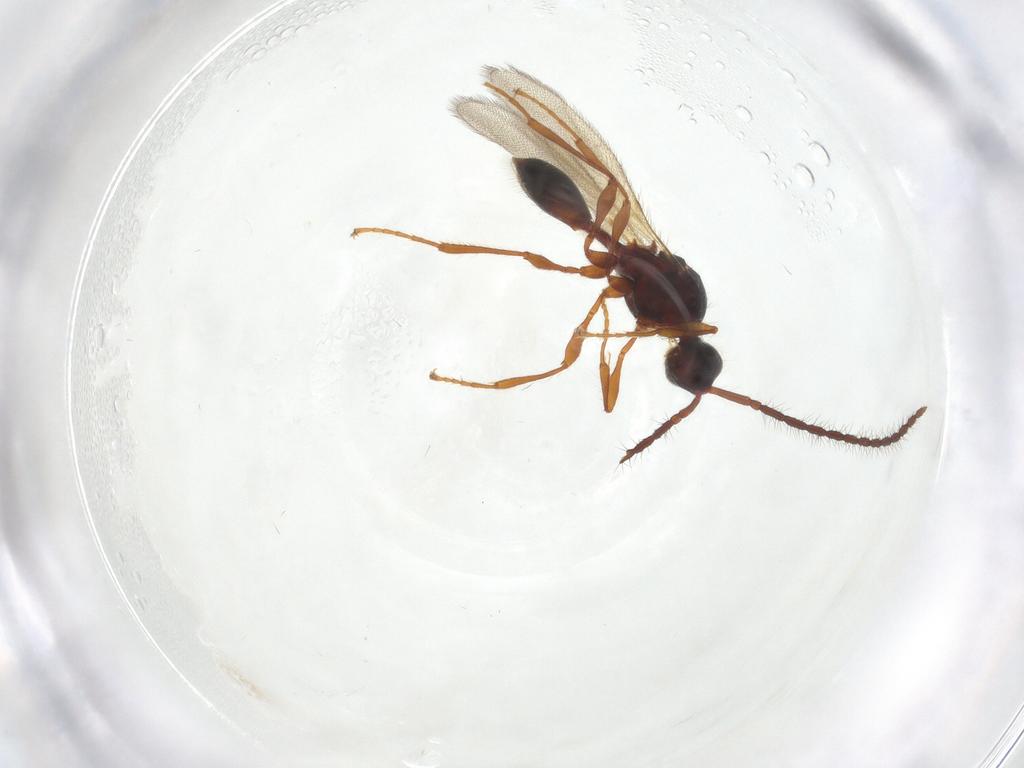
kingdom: Animalia
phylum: Arthropoda
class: Insecta
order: Hymenoptera
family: Diapriidae
